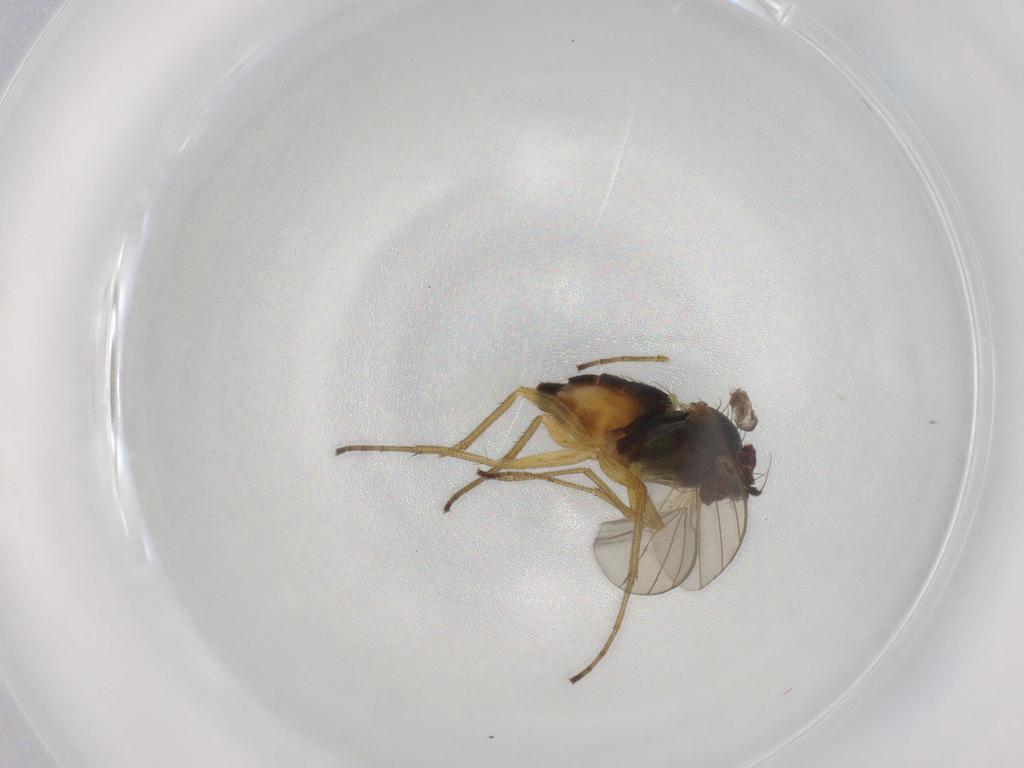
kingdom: Animalia
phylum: Arthropoda
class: Insecta
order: Diptera
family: Dolichopodidae
